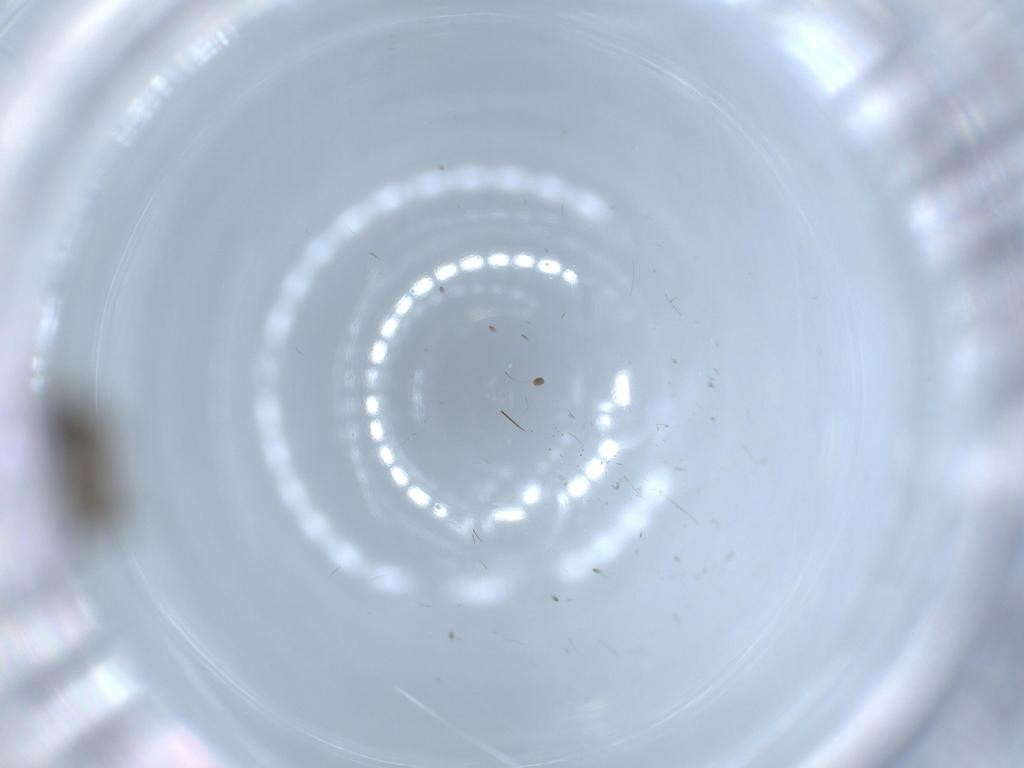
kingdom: Animalia
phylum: Arthropoda
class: Insecta
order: Diptera
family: Phoridae
